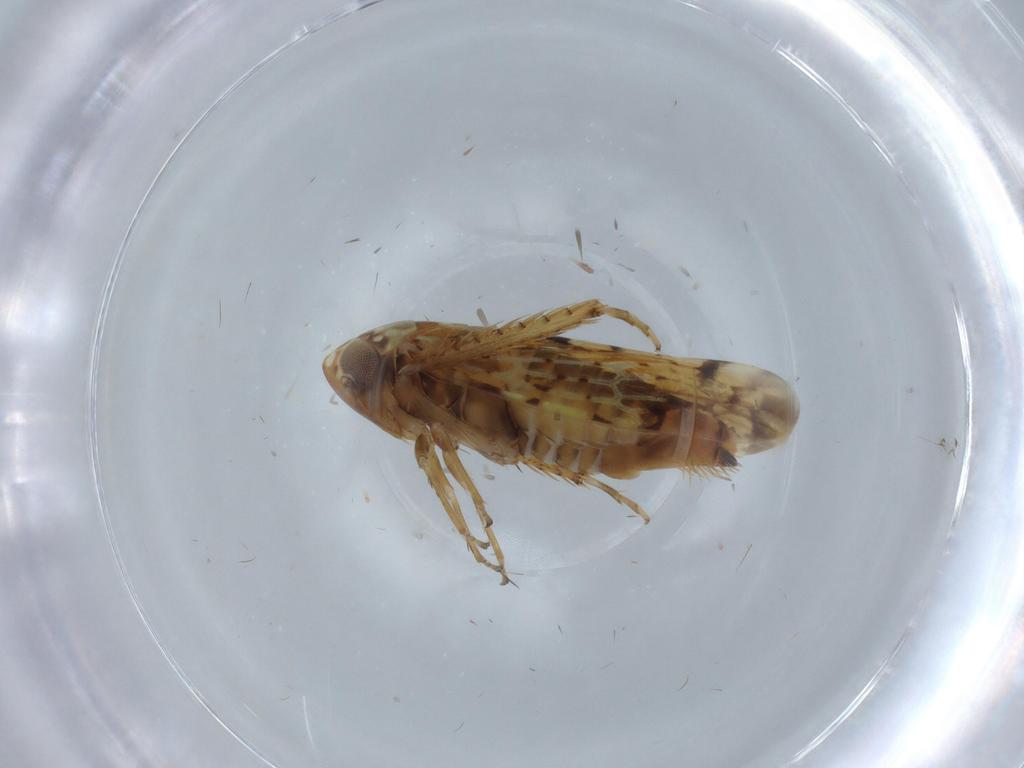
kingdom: Animalia
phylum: Arthropoda
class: Insecta
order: Hemiptera
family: Cicadellidae
